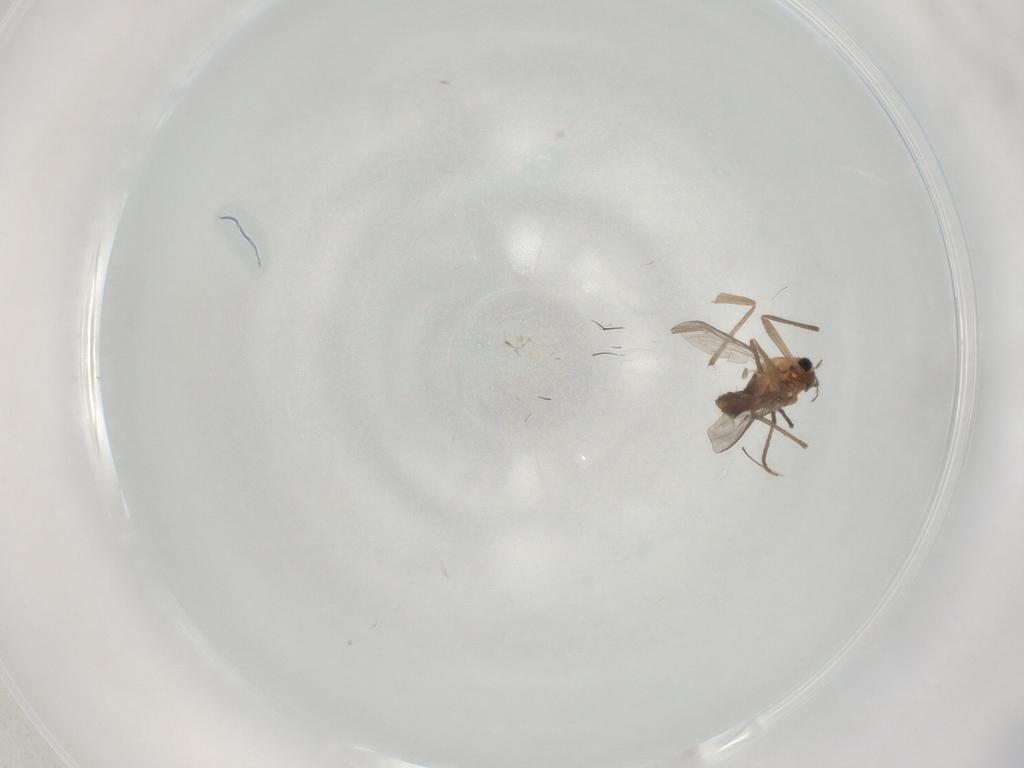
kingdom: Animalia
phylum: Arthropoda
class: Insecta
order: Diptera
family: Chironomidae
